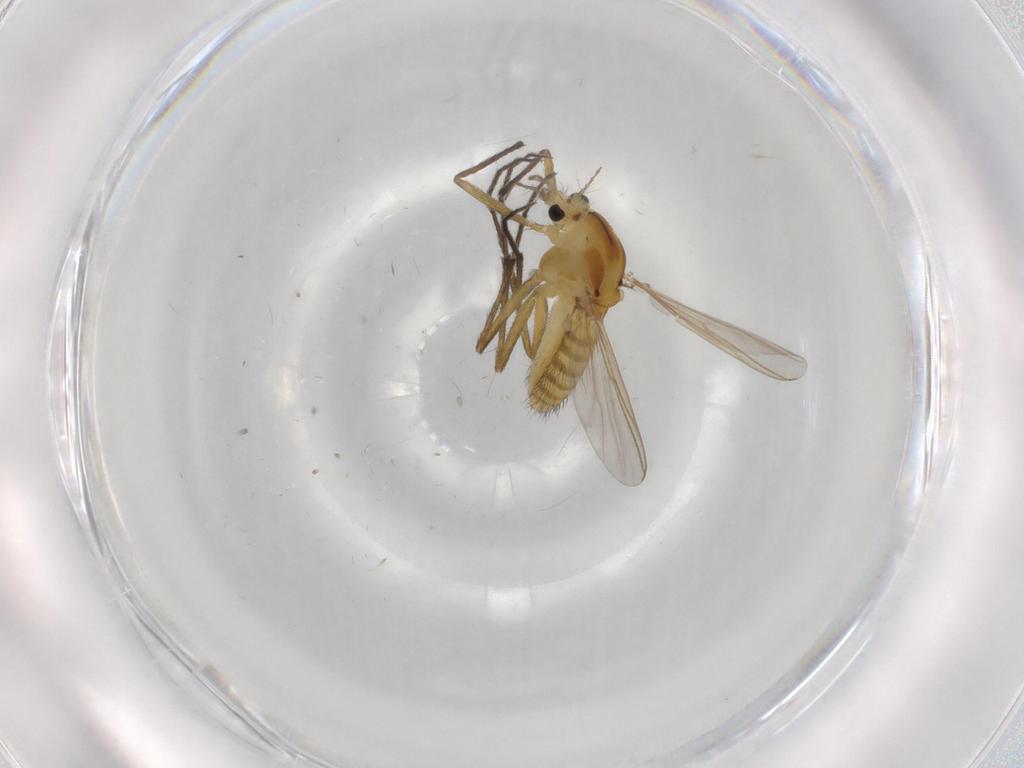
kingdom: Animalia
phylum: Arthropoda
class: Insecta
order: Diptera
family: Chironomidae
